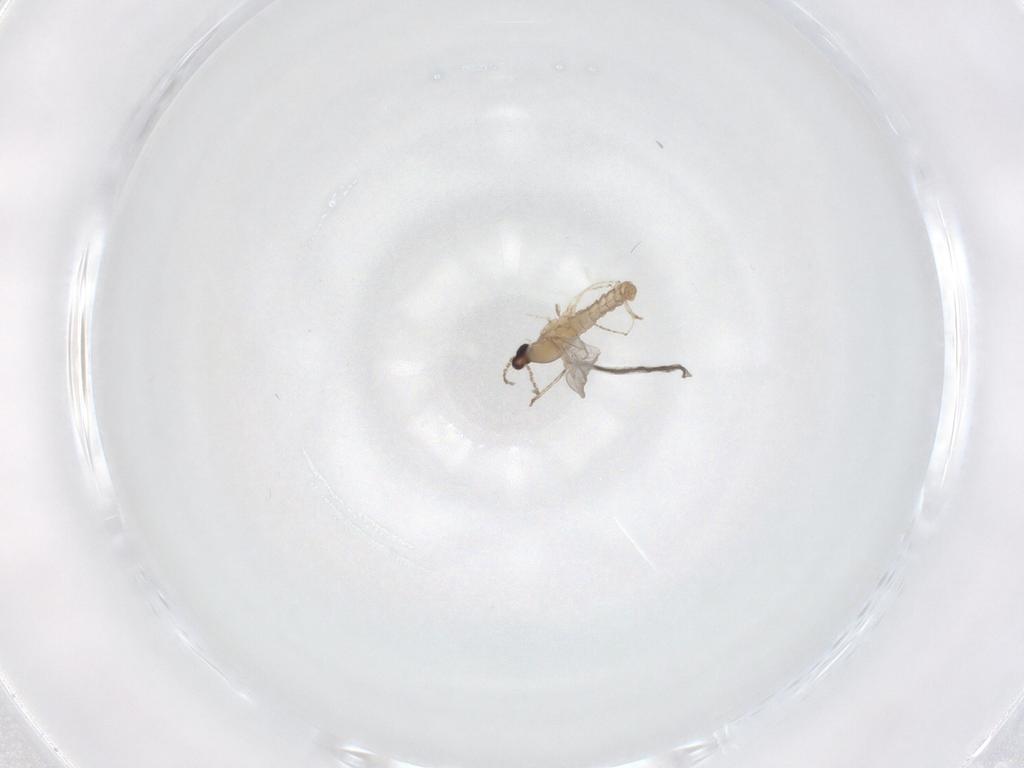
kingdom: Animalia
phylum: Arthropoda
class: Insecta
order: Diptera
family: Cecidomyiidae
